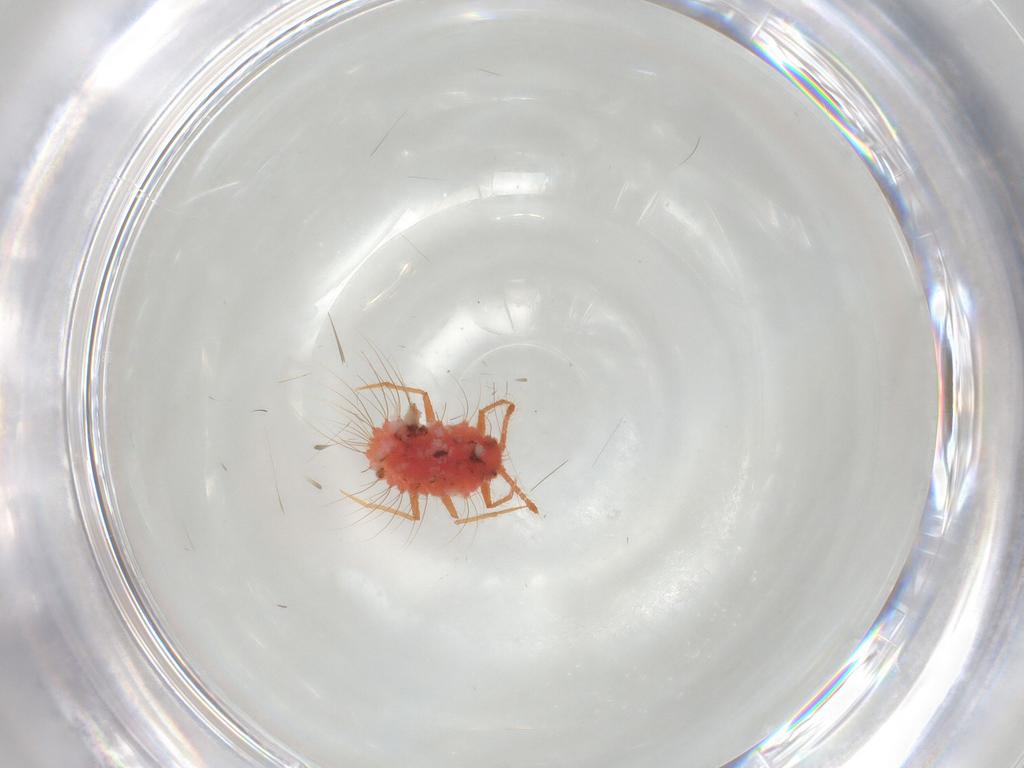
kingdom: Animalia
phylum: Arthropoda
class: Insecta
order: Hemiptera
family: Monophlebidae
